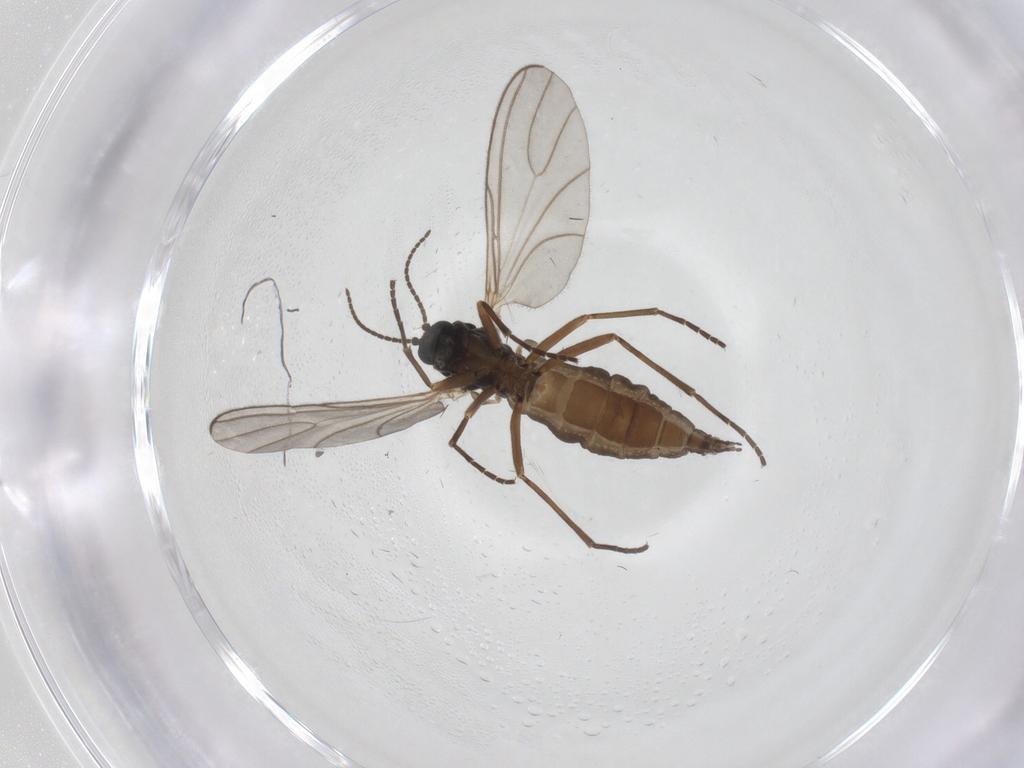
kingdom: Animalia
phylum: Arthropoda
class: Insecta
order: Diptera
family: Sciaridae
